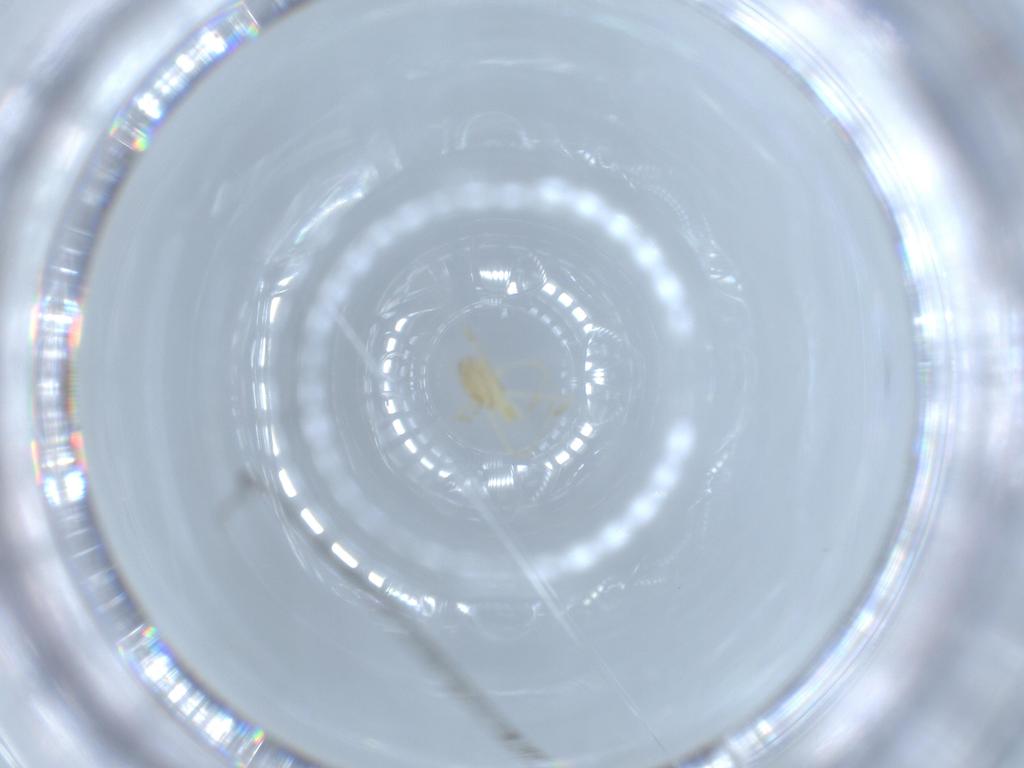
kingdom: Animalia
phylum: Arthropoda
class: Arachnida
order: Trombidiformes
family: Erythraeidae
